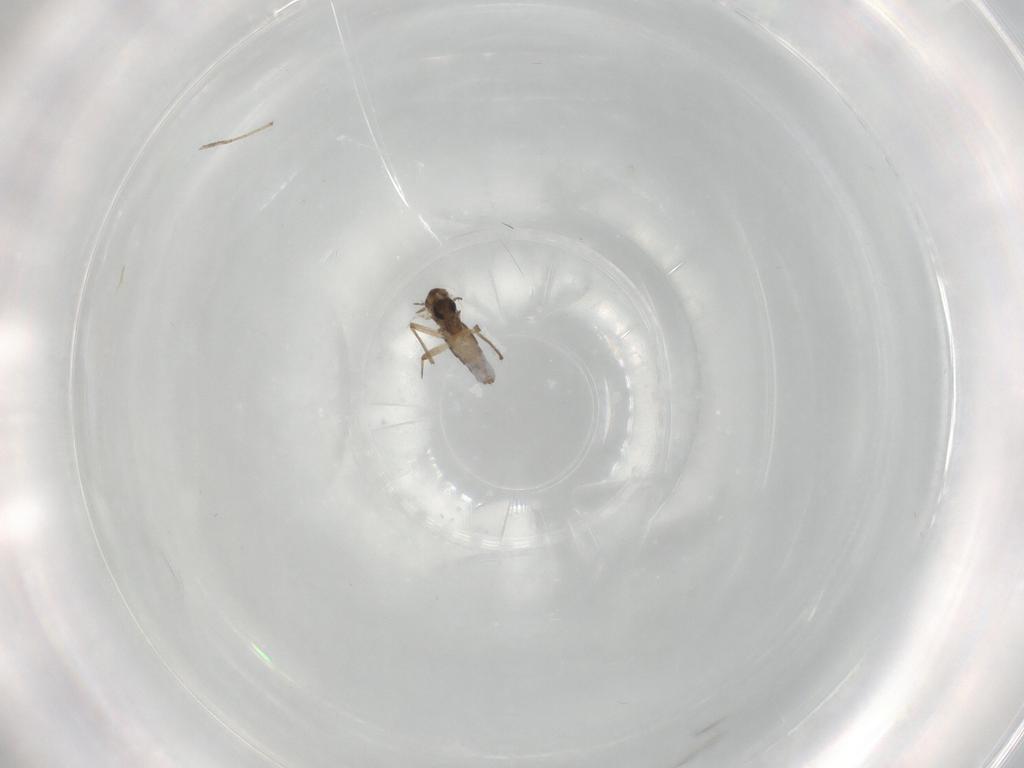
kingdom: Animalia
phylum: Arthropoda
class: Insecta
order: Diptera
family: Chironomidae
